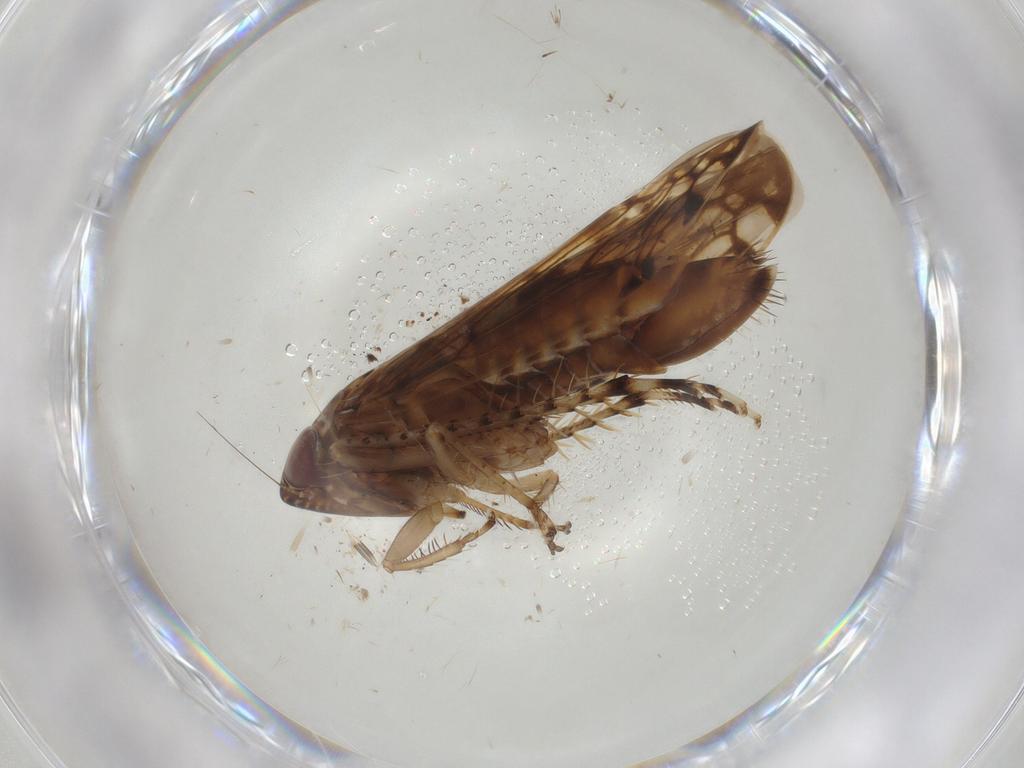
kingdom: Animalia
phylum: Arthropoda
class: Insecta
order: Hemiptera
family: Cicadellidae
